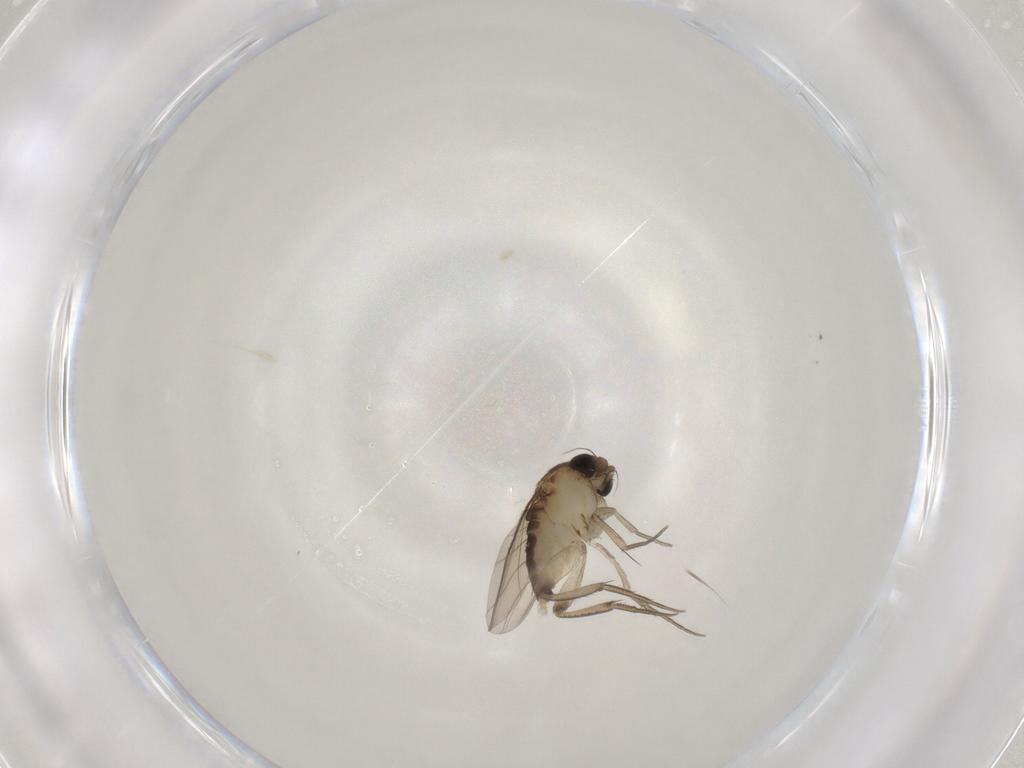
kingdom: Animalia
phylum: Arthropoda
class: Insecta
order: Diptera
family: Phoridae
